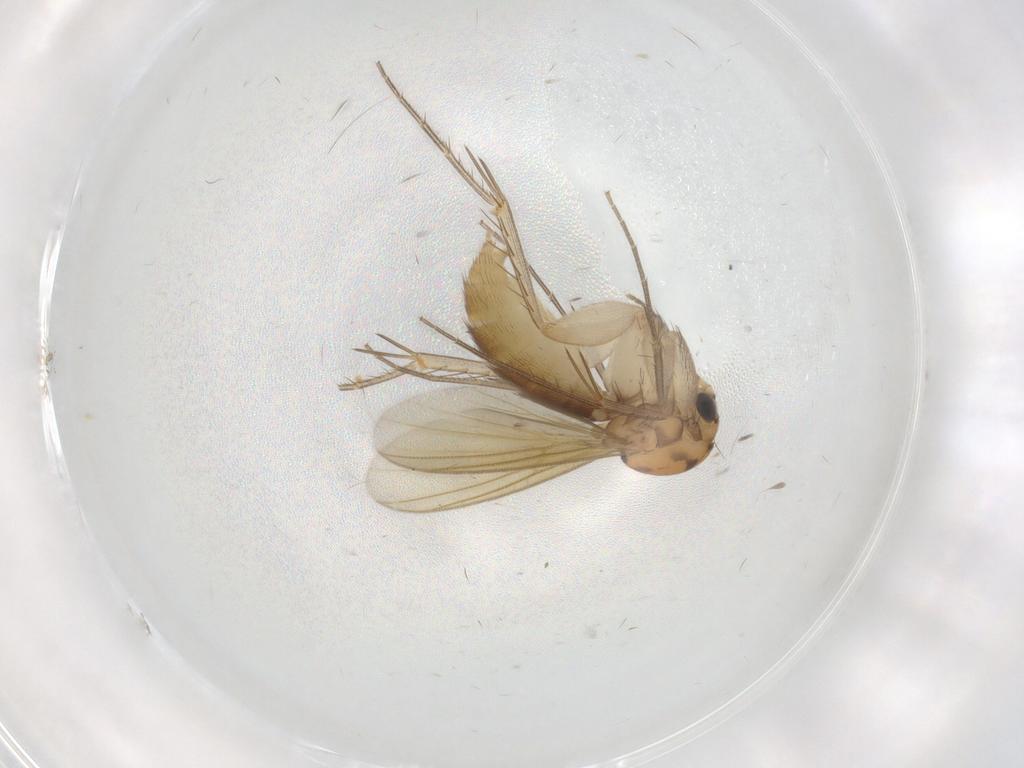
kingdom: Animalia
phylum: Arthropoda
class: Insecta
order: Diptera
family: Mycetophilidae
